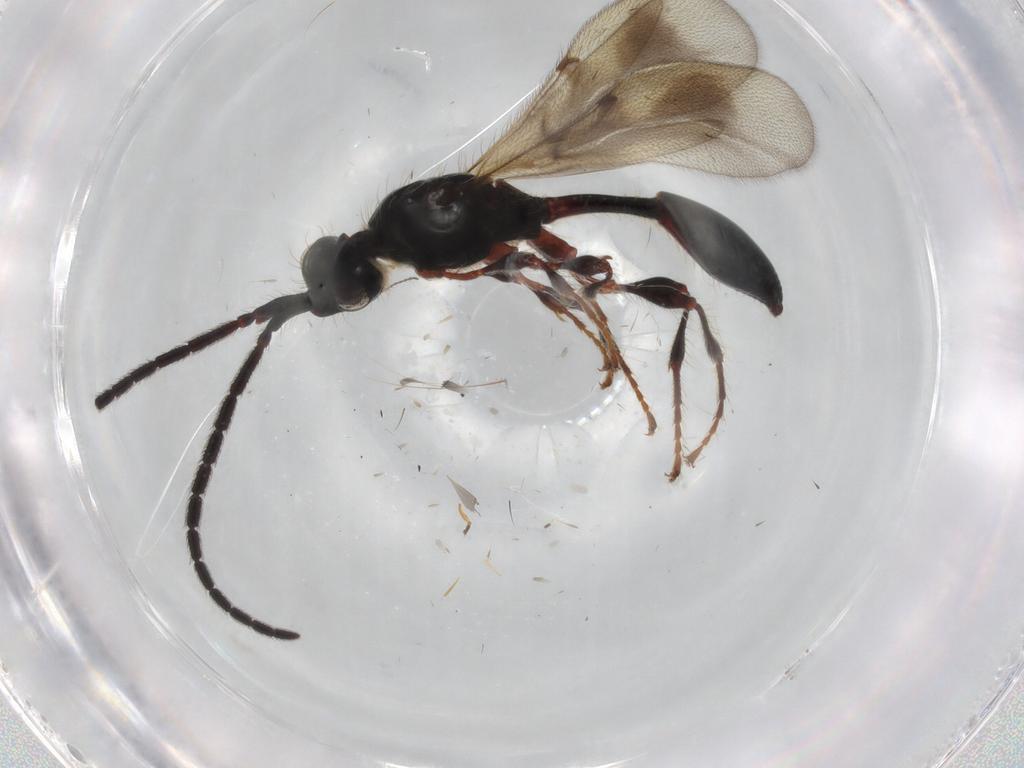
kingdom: Animalia
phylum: Arthropoda
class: Insecta
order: Hymenoptera
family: Diapriidae
